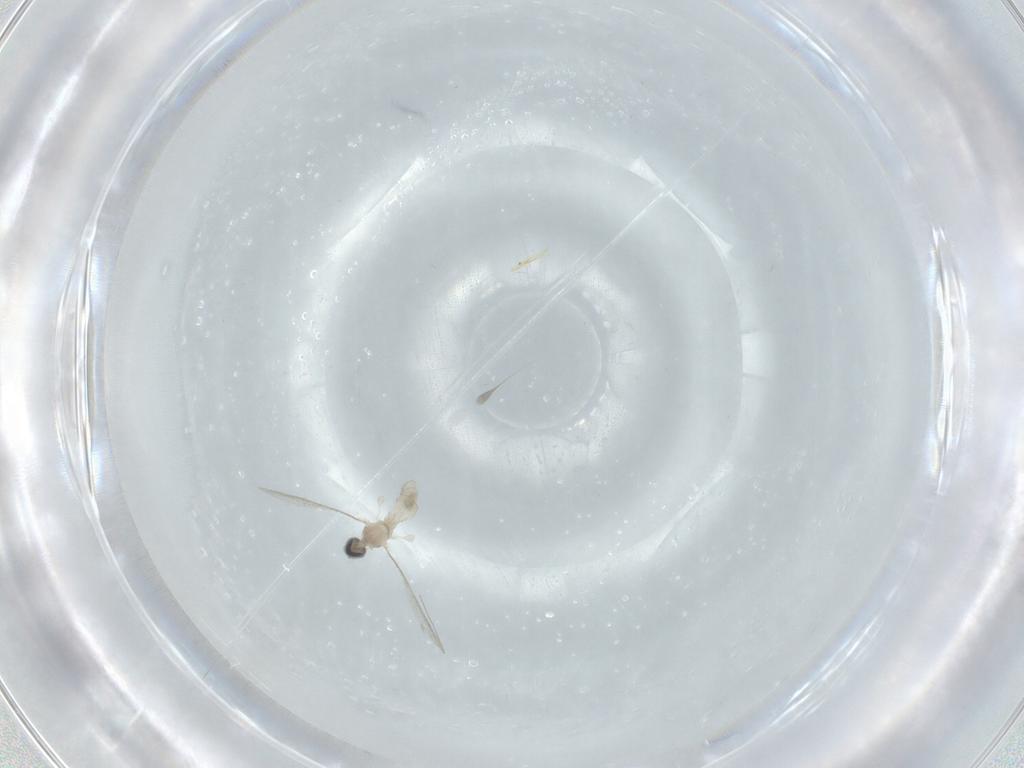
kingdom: Animalia
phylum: Arthropoda
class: Insecta
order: Diptera
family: Cecidomyiidae
